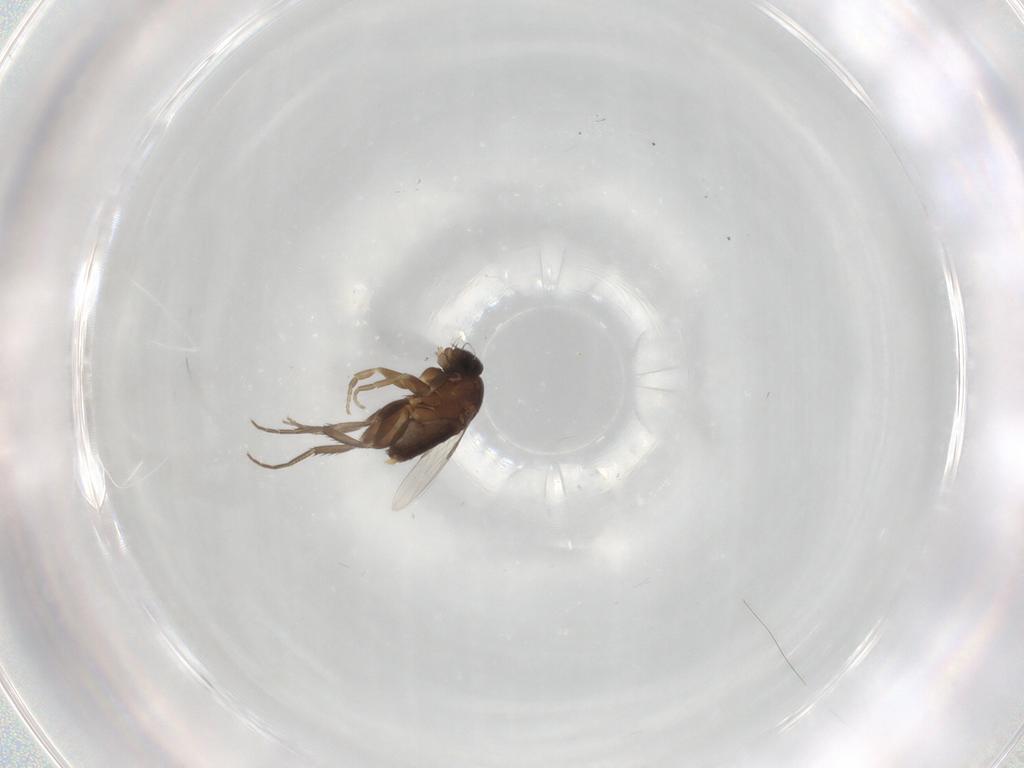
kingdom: Animalia
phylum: Arthropoda
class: Insecta
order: Diptera
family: Phoridae
